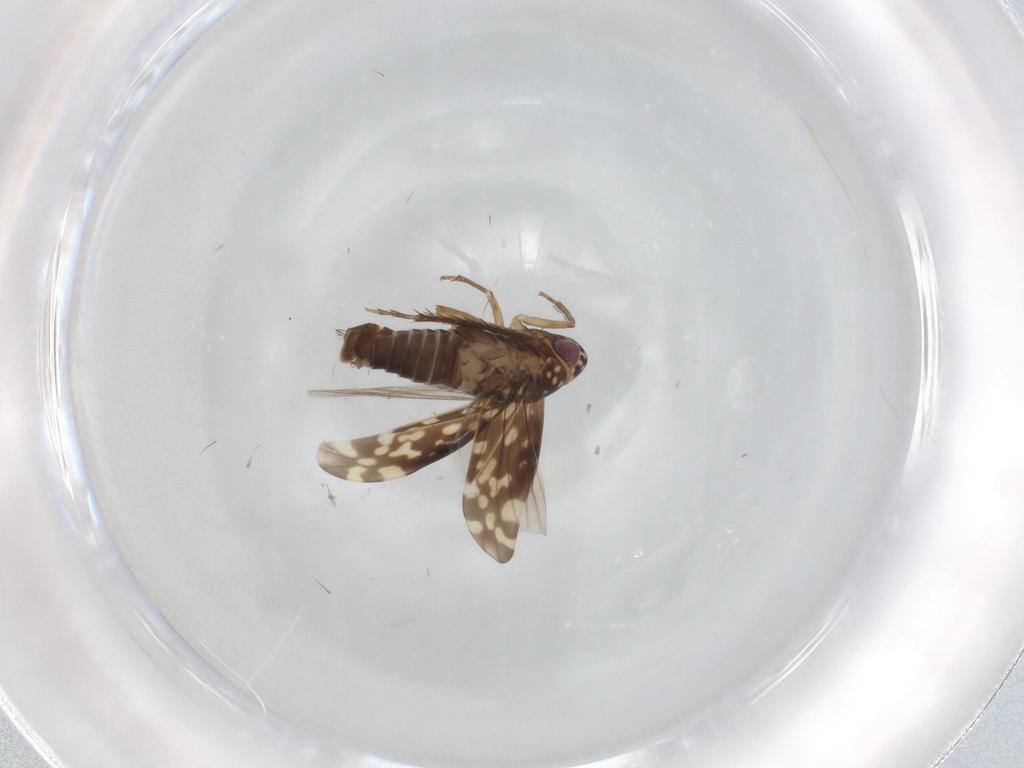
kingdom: Animalia
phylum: Arthropoda
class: Insecta
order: Hemiptera
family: Cicadellidae
